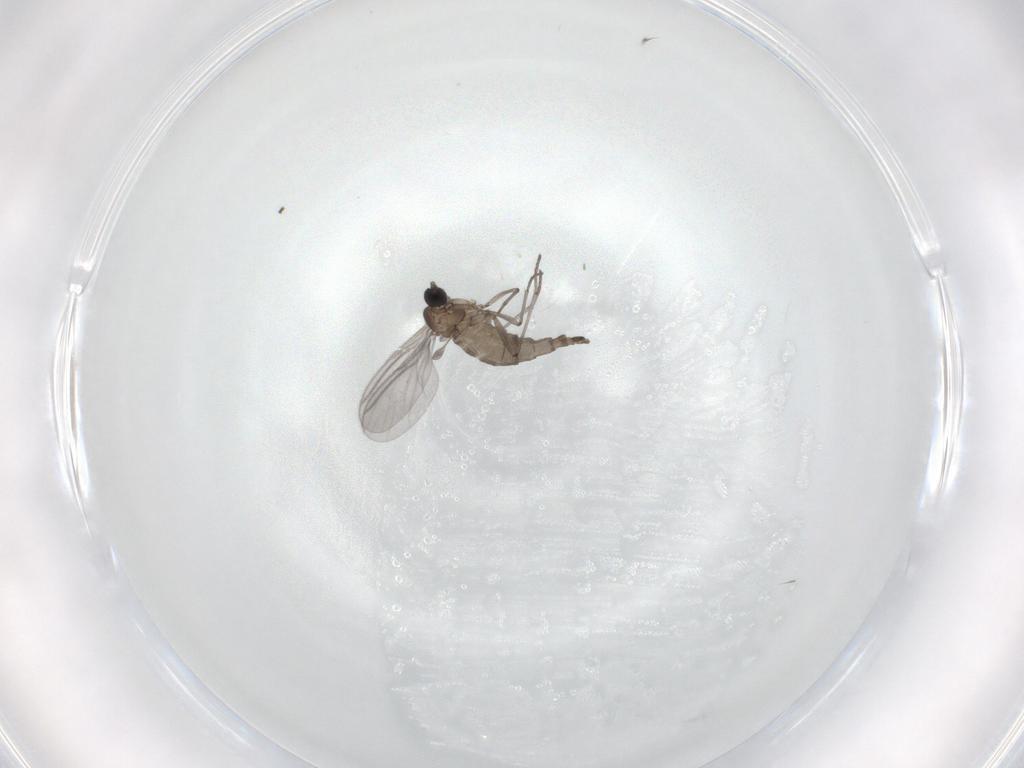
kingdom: Animalia
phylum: Arthropoda
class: Insecta
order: Diptera
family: Chironomidae
